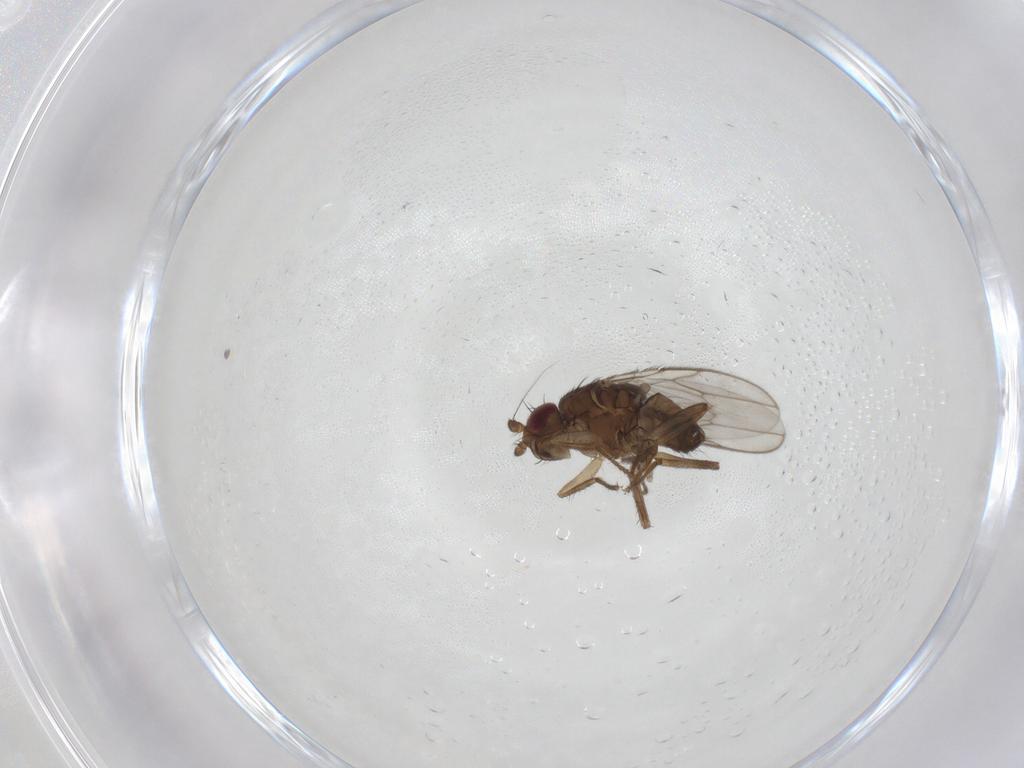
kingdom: Animalia
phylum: Arthropoda
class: Insecta
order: Diptera
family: Sphaeroceridae
